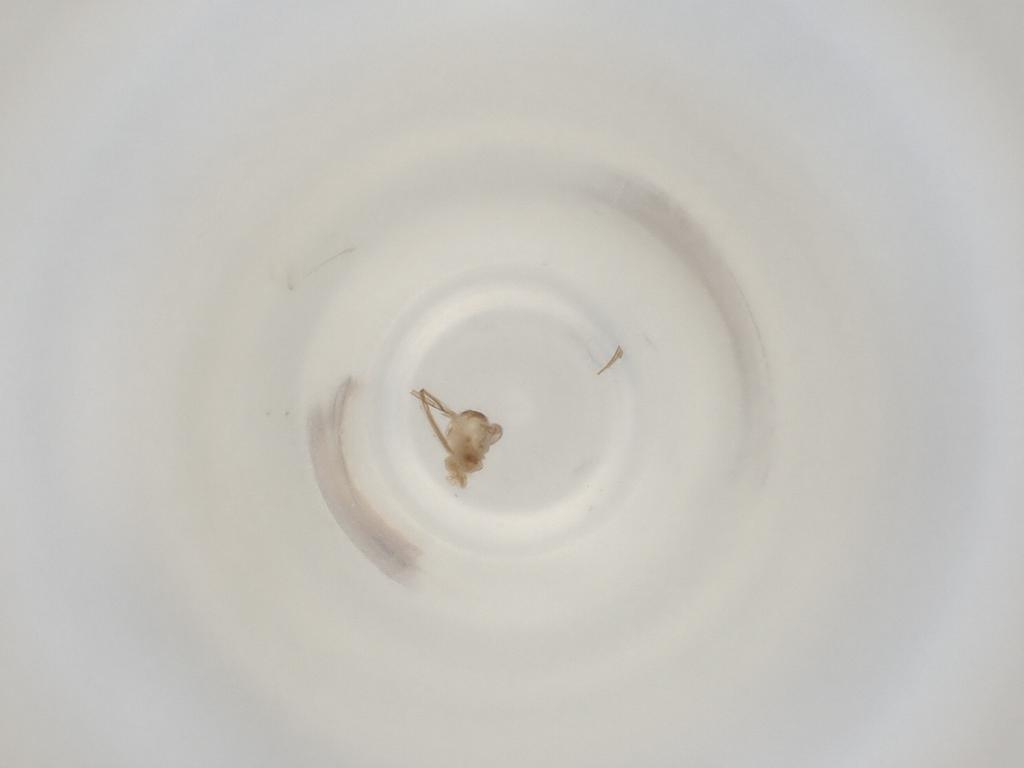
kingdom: Animalia
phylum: Arthropoda
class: Insecta
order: Diptera
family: Cecidomyiidae
